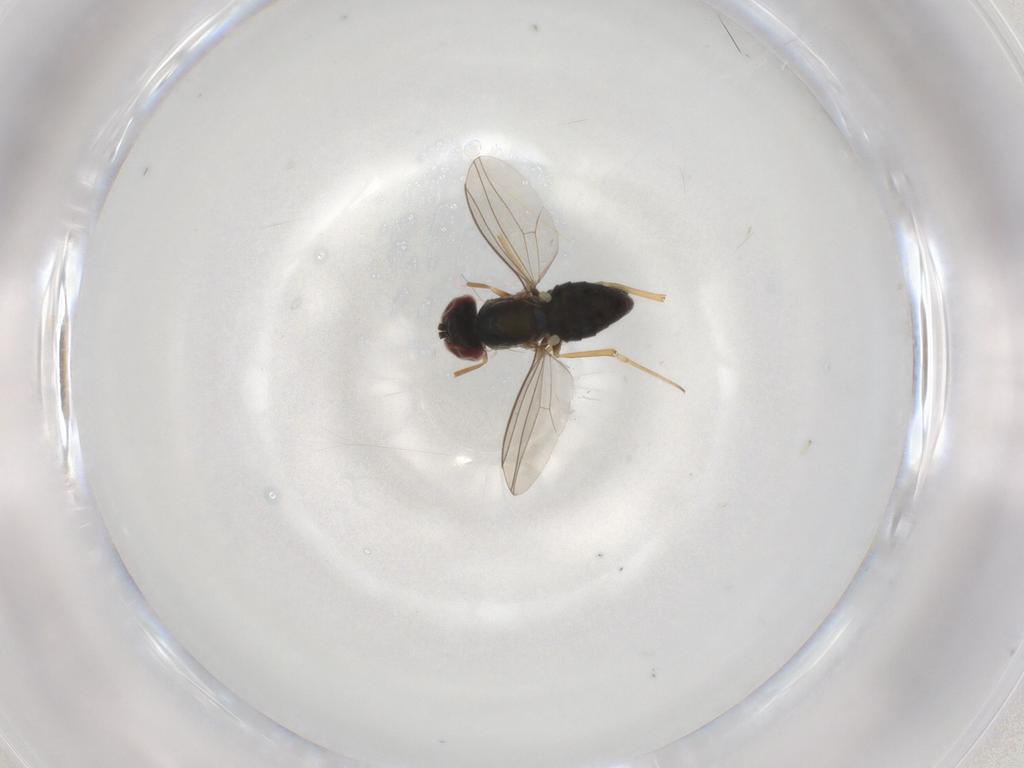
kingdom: Animalia
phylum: Arthropoda
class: Insecta
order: Diptera
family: Dolichopodidae
